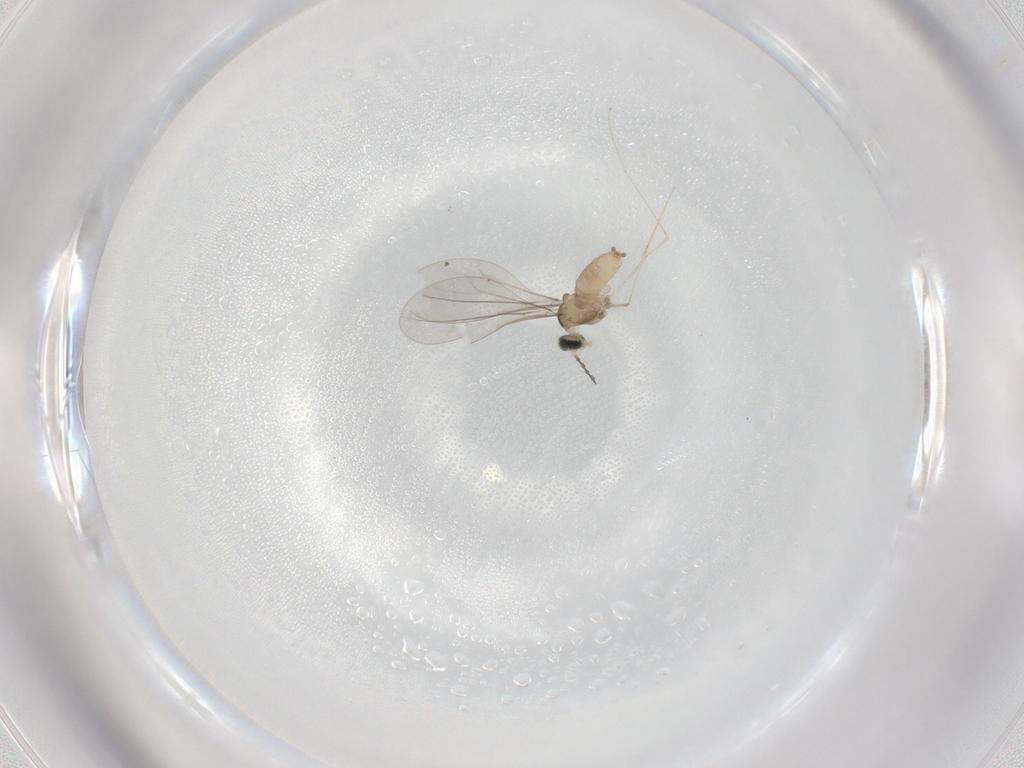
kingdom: Animalia
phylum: Arthropoda
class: Insecta
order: Diptera
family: Cecidomyiidae
